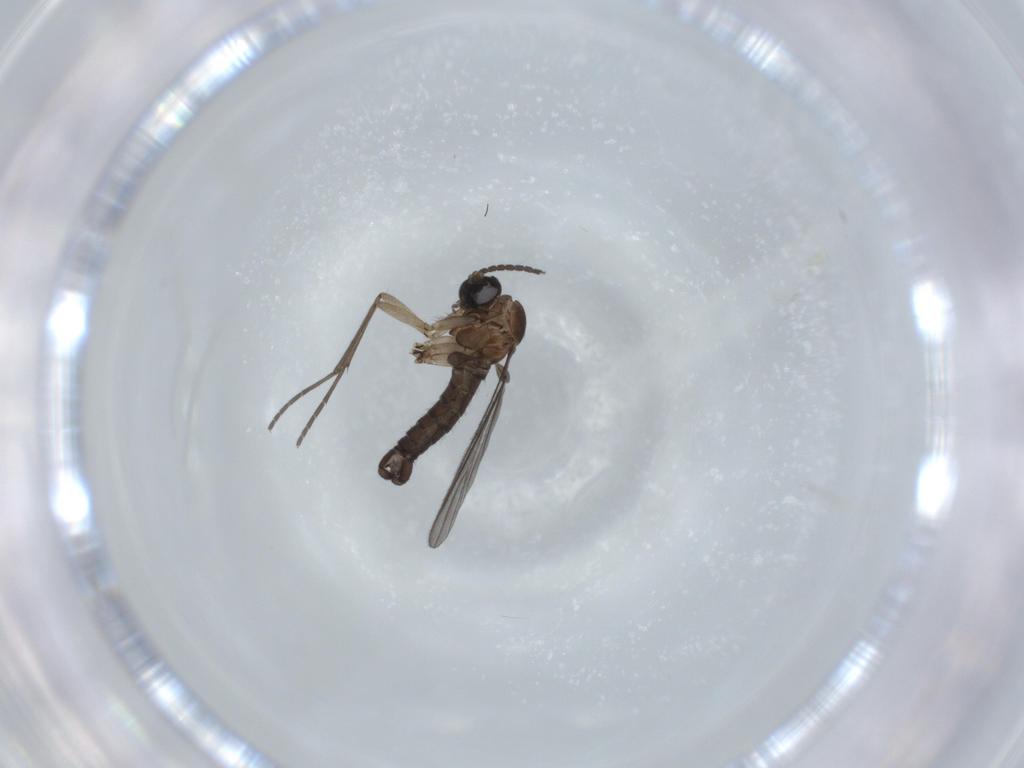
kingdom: Animalia
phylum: Arthropoda
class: Insecta
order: Diptera
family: Sciaridae
